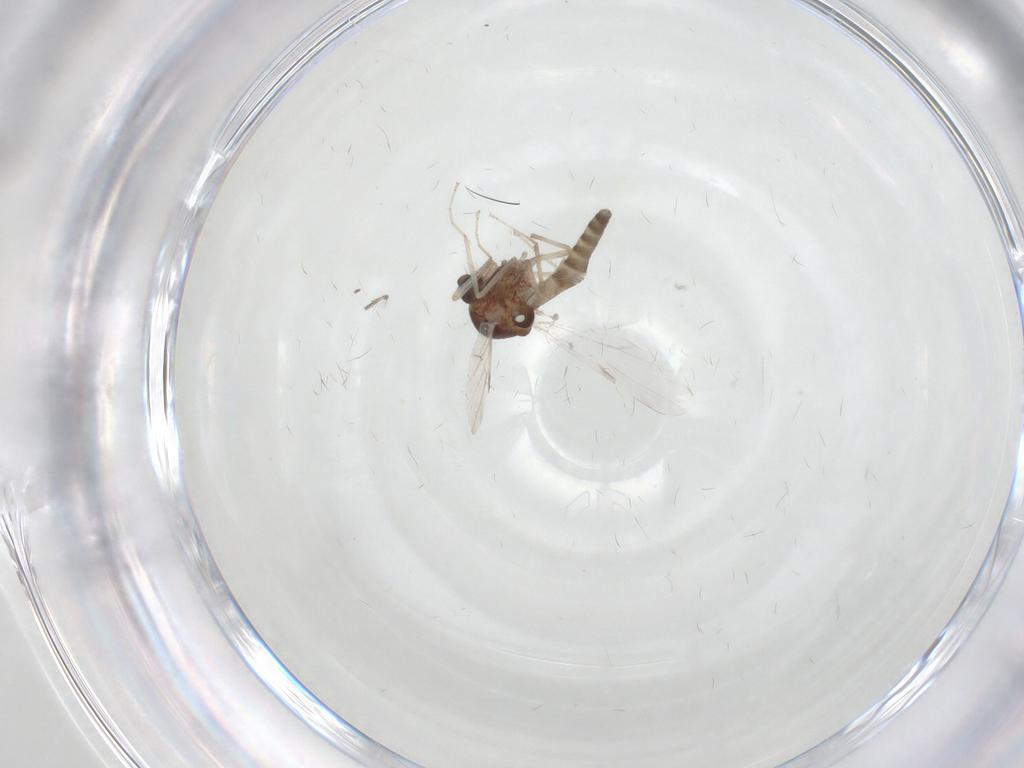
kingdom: Animalia
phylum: Arthropoda
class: Insecta
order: Diptera
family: Ceratopogonidae
